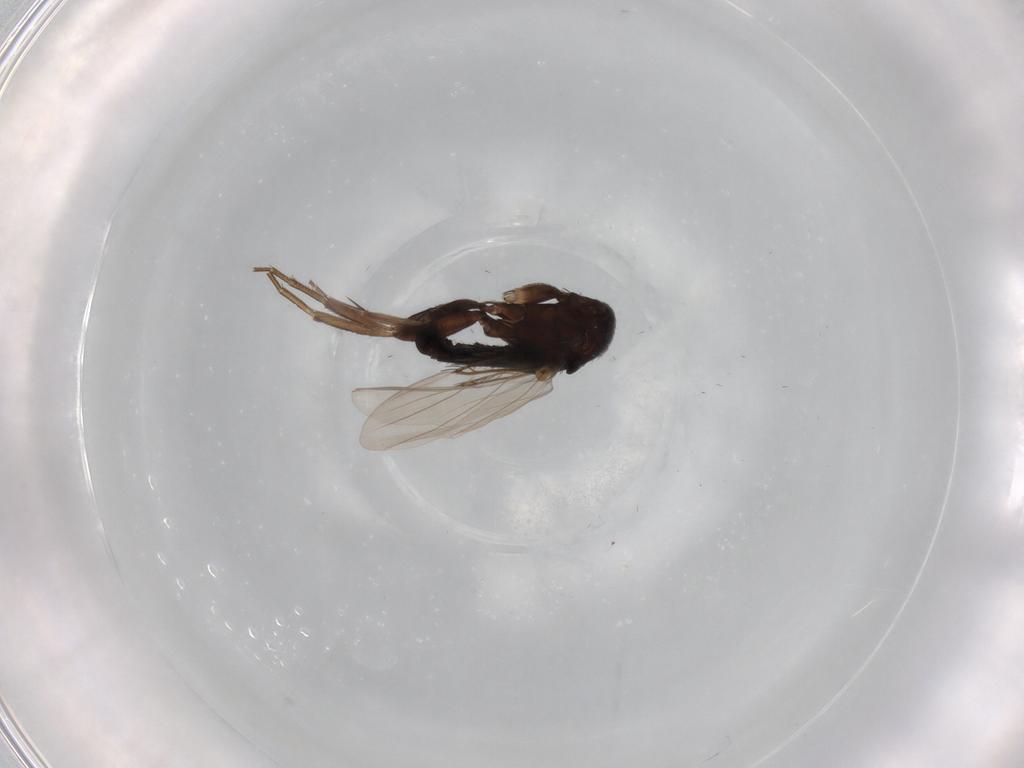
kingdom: Animalia
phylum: Arthropoda
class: Insecta
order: Diptera
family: Phoridae
